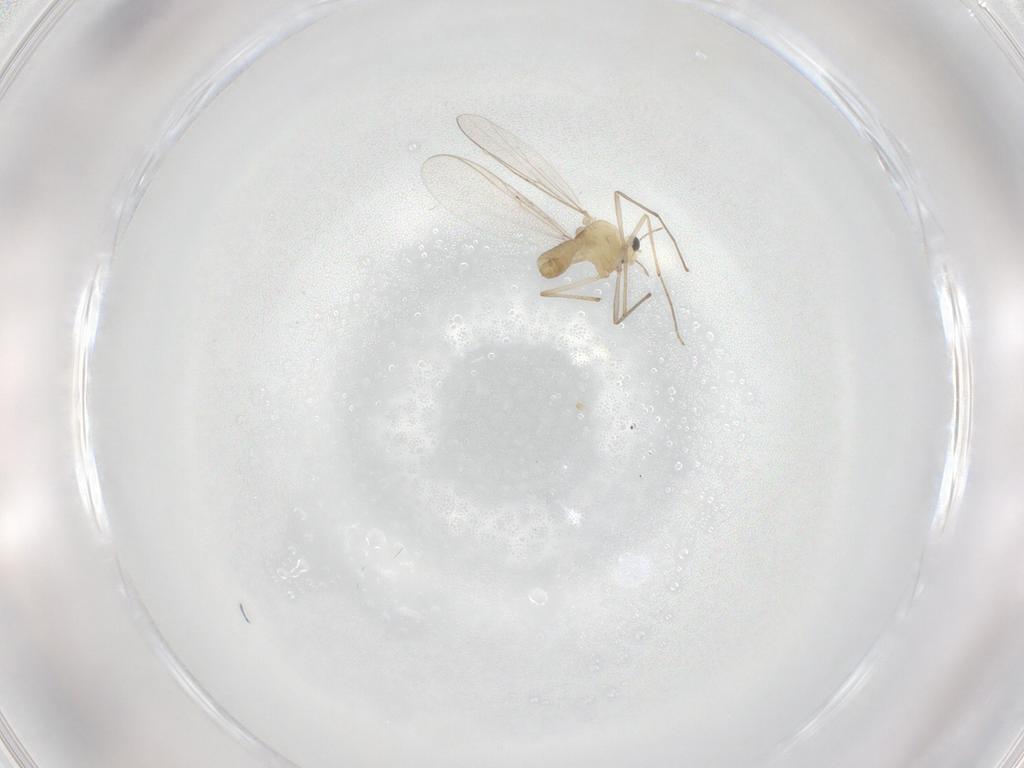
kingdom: Animalia
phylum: Arthropoda
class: Insecta
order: Diptera
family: Chironomidae
